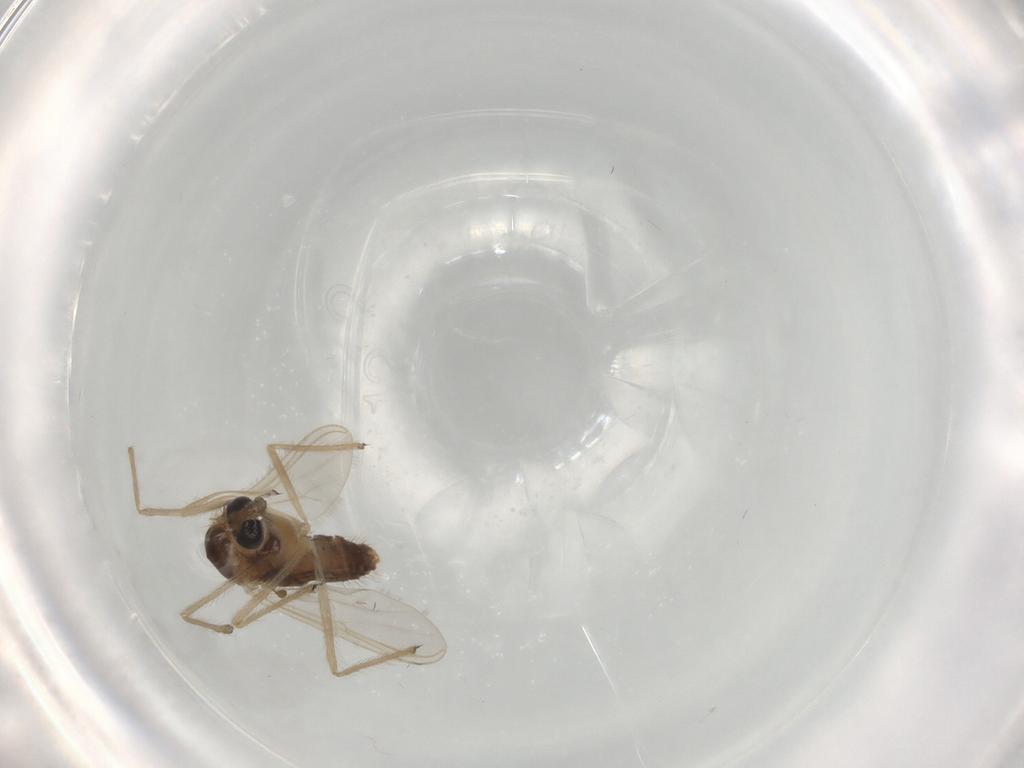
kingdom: Animalia
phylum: Arthropoda
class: Insecta
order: Diptera
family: Chironomidae
